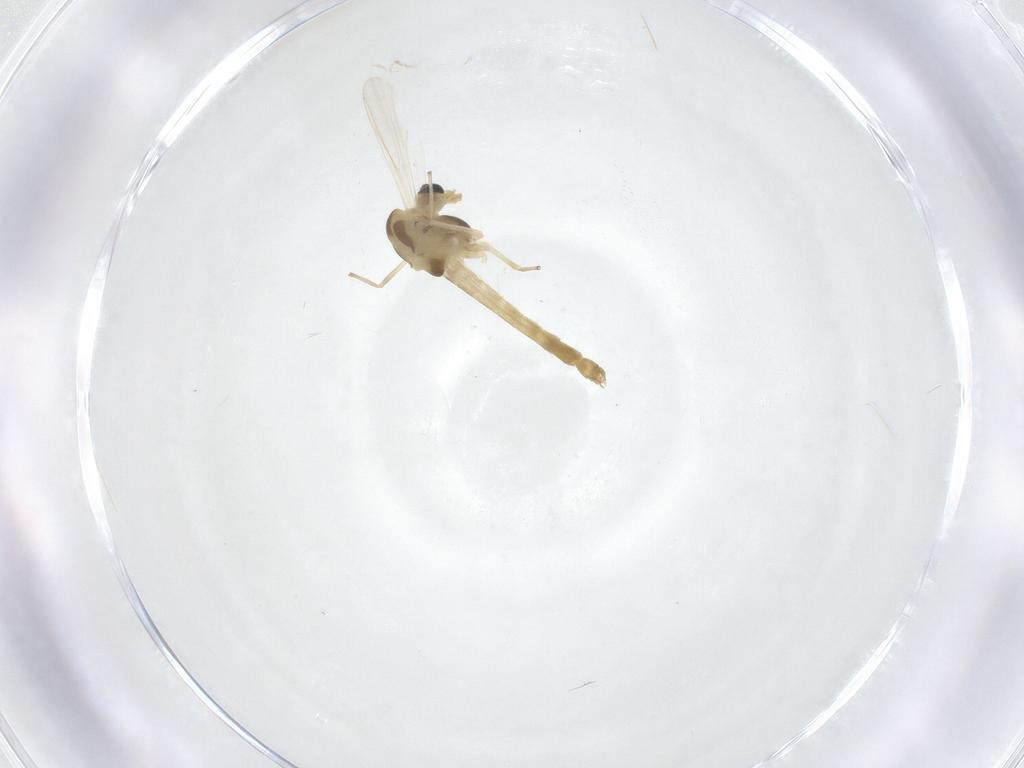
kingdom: Animalia
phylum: Arthropoda
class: Insecta
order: Diptera
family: Chironomidae
